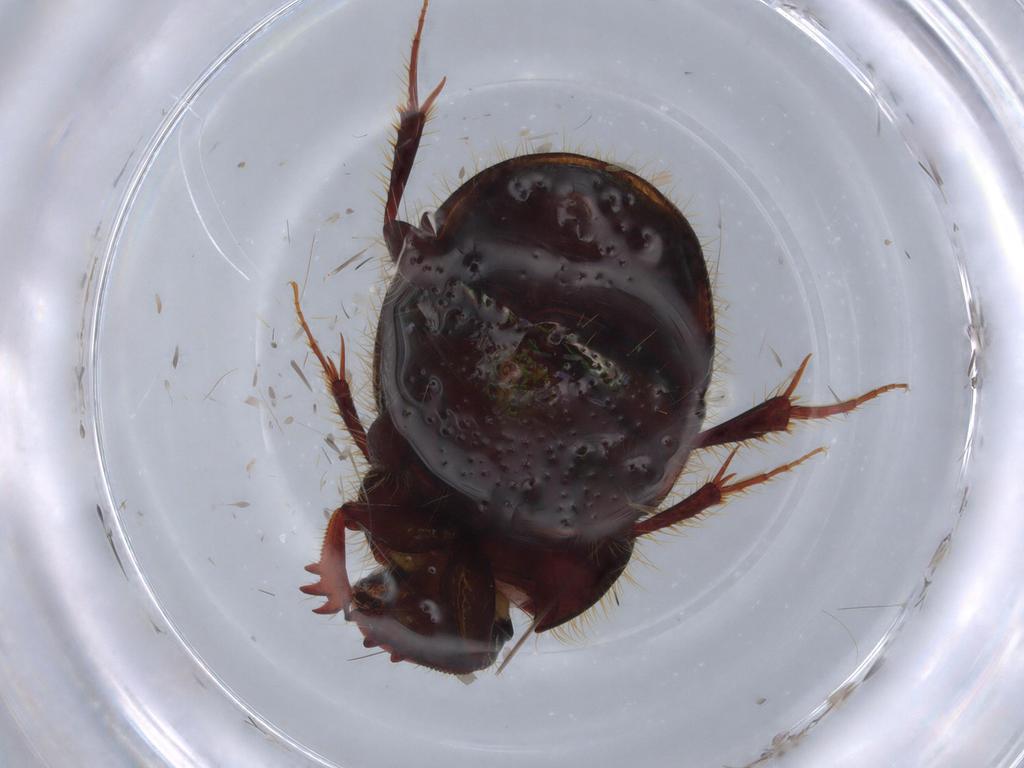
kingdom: Animalia
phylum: Arthropoda
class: Insecta
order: Coleoptera
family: Scarabaeidae
